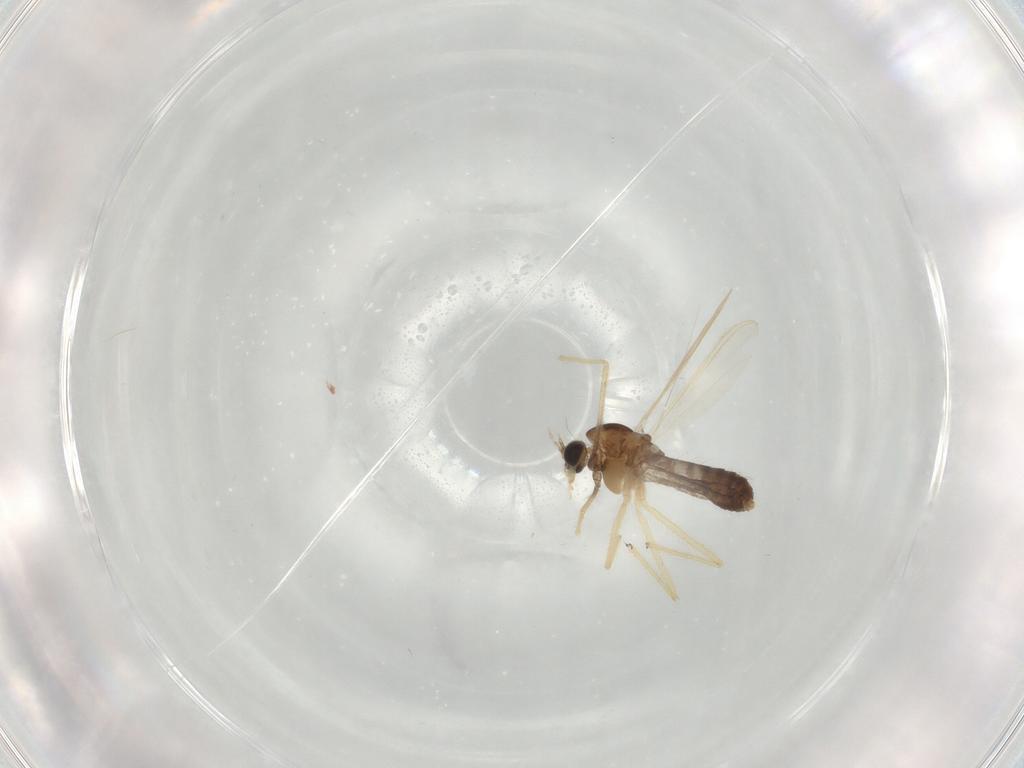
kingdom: Animalia
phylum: Arthropoda
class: Insecta
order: Diptera
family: Chironomidae
